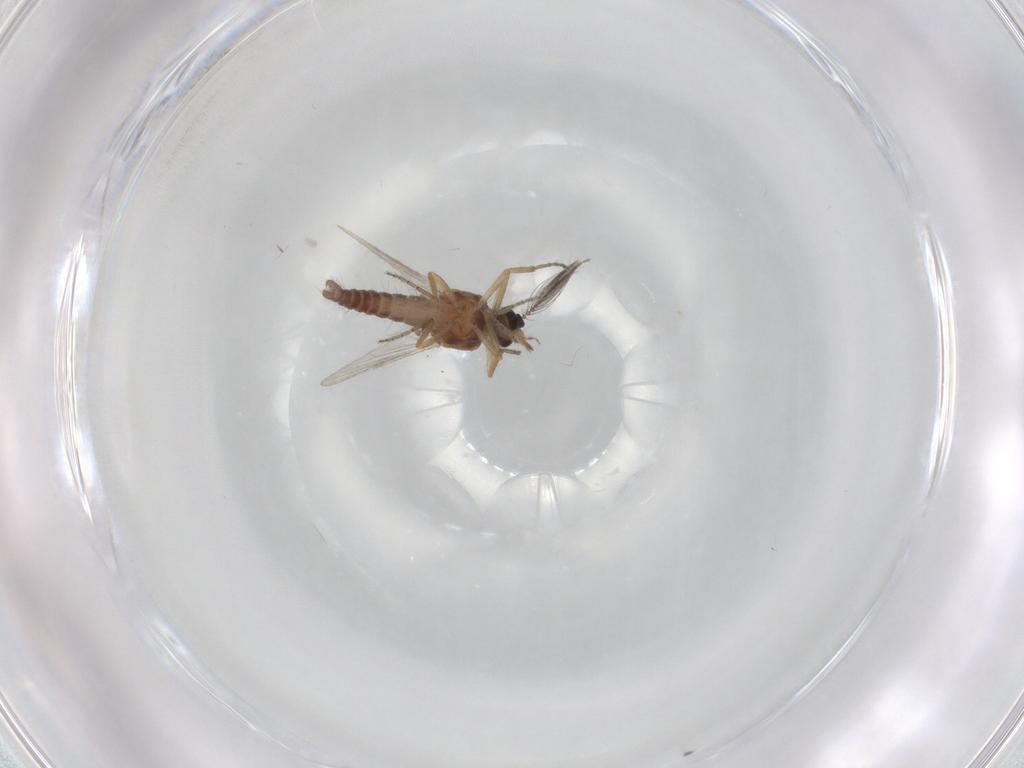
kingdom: Animalia
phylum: Arthropoda
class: Insecta
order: Diptera
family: Ceratopogonidae
